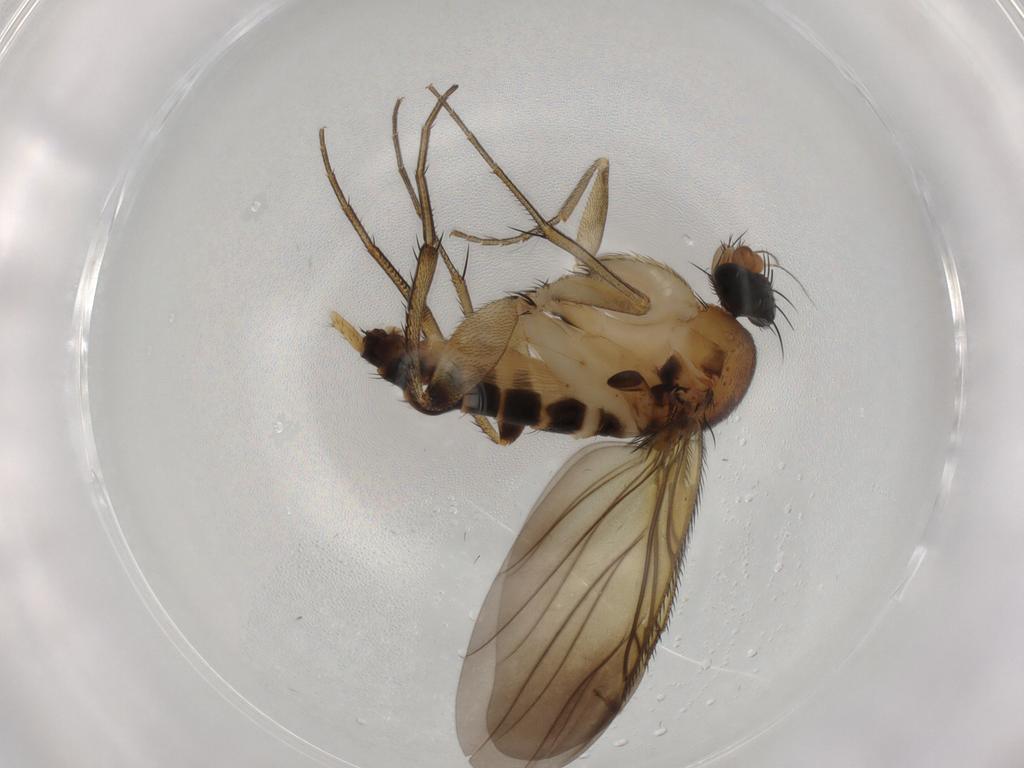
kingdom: Animalia
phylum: Arthropoda
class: Insecta
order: Diptera
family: Phoridae
